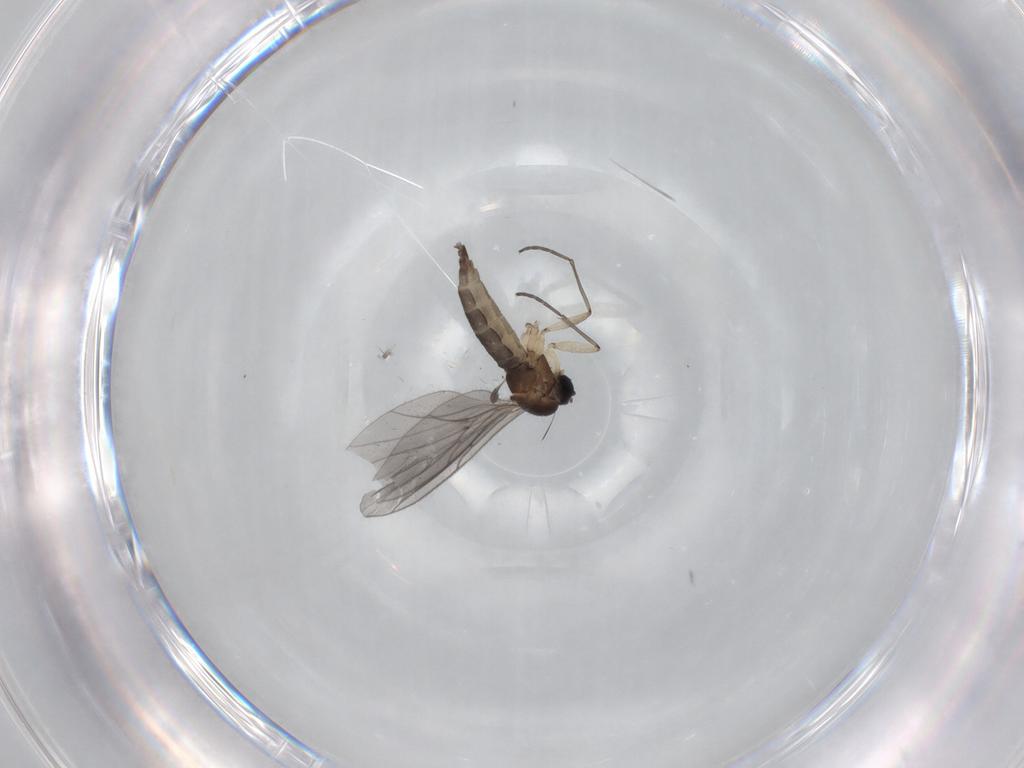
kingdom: Animalia
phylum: Arthropoda
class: Insecta
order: Diptera
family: Sciaridae
